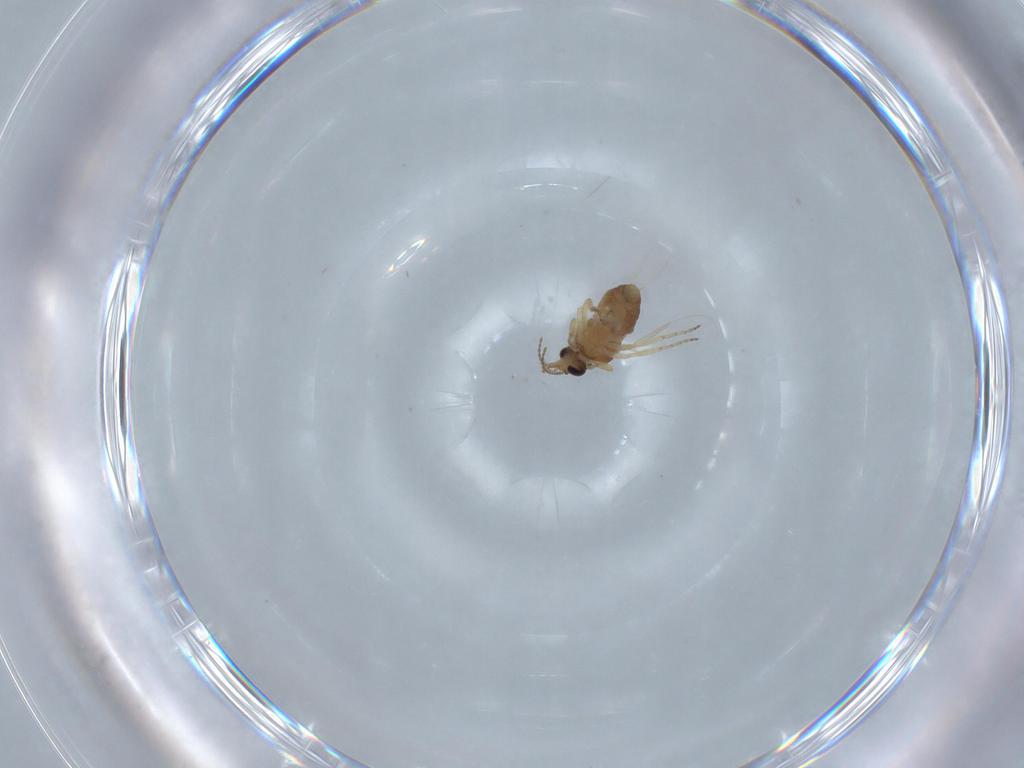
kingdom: Animalia
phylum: Arthropoda
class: Insecta
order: Diptera
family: Ceratopogonidae
